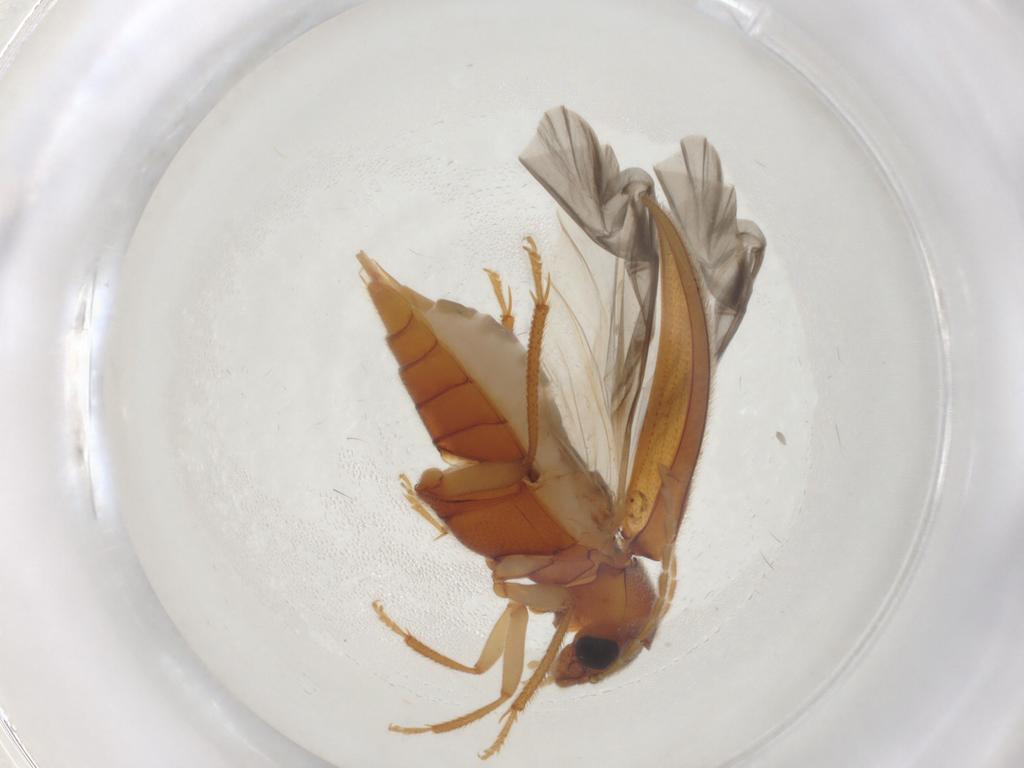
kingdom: Animalia
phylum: Arthropoda
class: Insecta
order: Coleoptera
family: Ptilodactylidae
